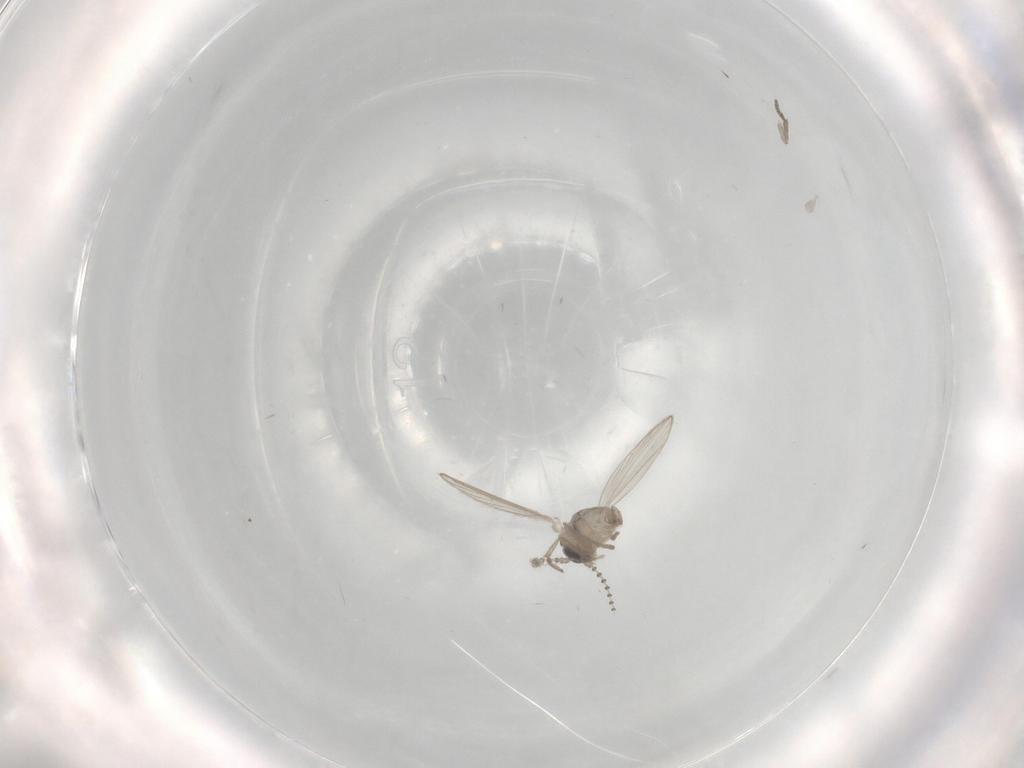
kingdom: Animalia
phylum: Arthropoda
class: Insecta
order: Diptera
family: Psychodidae
